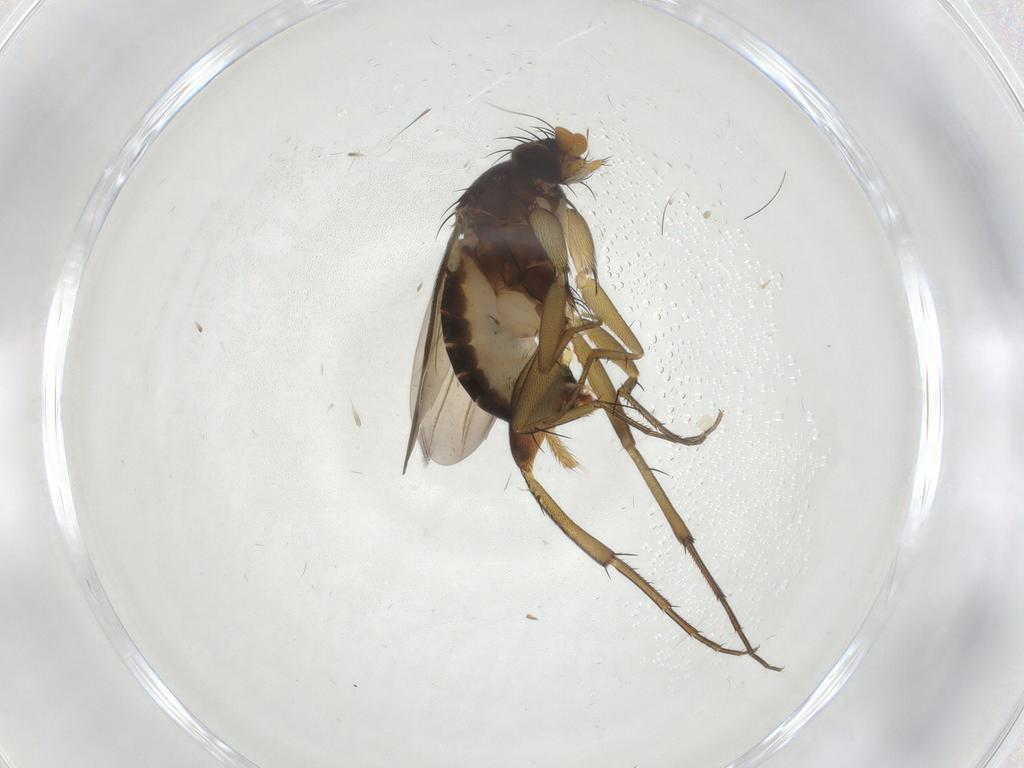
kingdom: Animalia
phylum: Arthropoda
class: Insecta
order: Diptera
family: Phoridae
